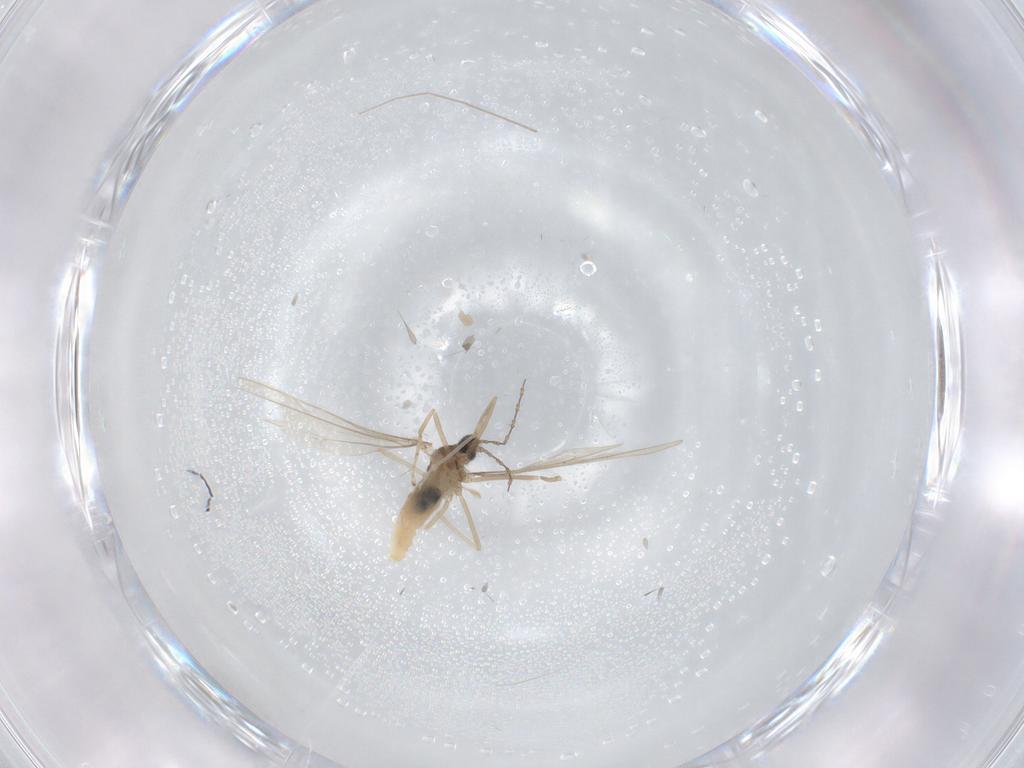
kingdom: Animalia
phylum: Arthropoda
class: Insecta
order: Diptera
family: Cecidomyiidae
